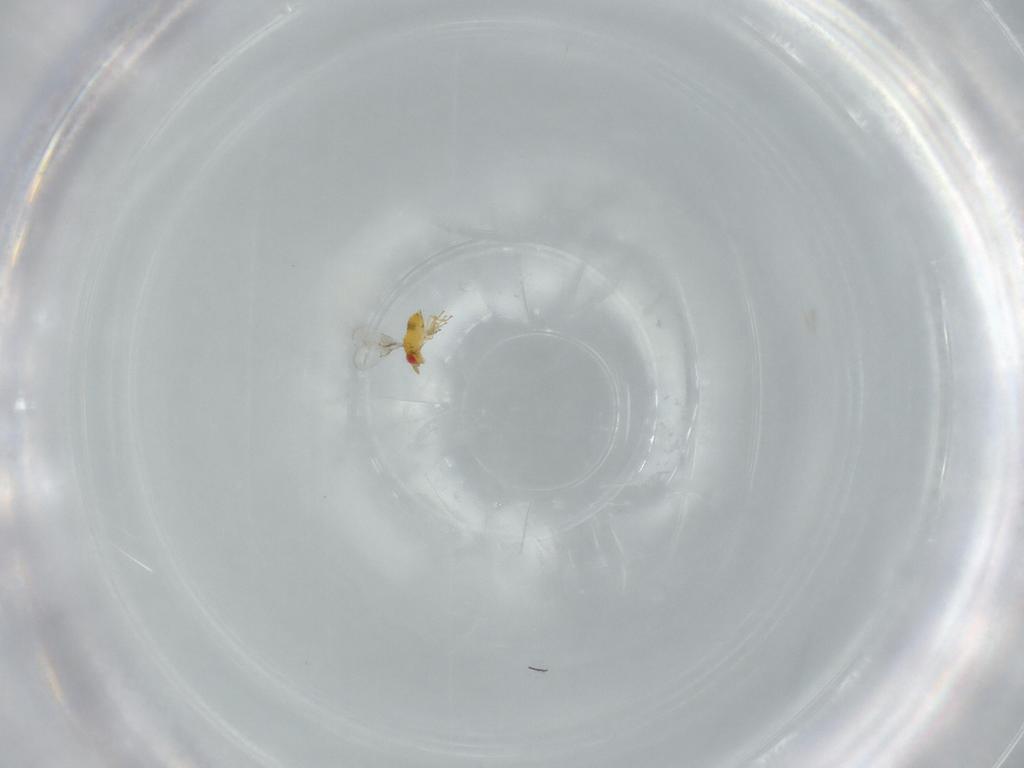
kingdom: Animalia
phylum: Arthropoda
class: Insecta
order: Hymenoptera
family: Trichogrammatidae
